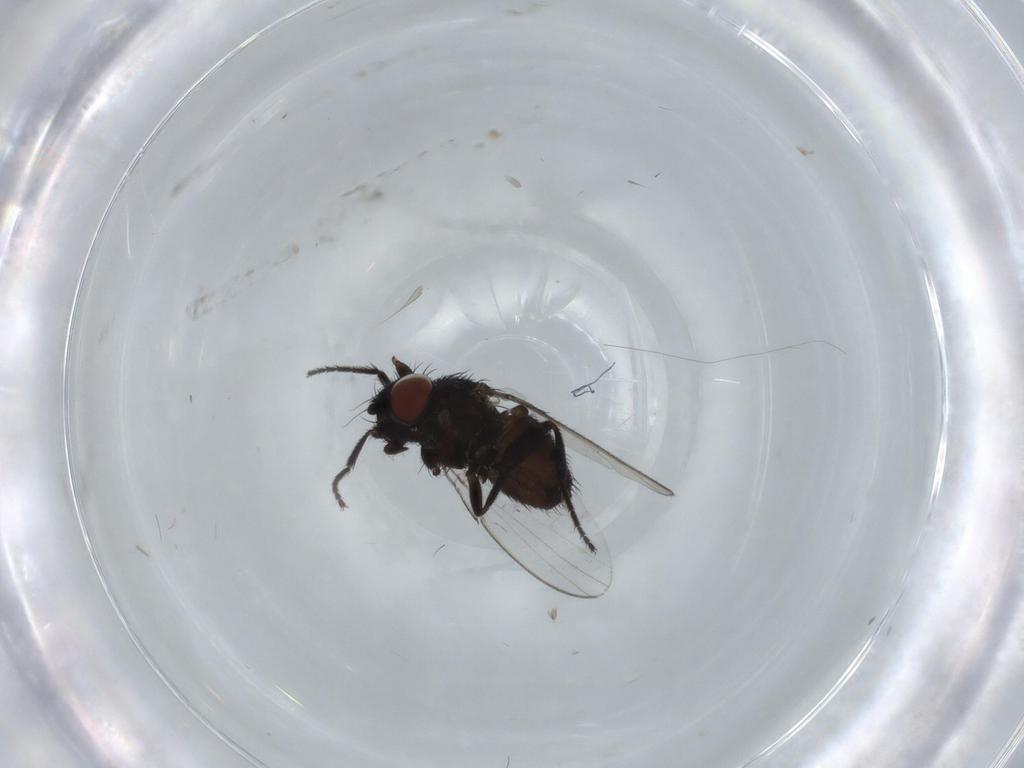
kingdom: Animalia
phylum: Arthropoda
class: Insecta
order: Diptera
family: Milichiidae
